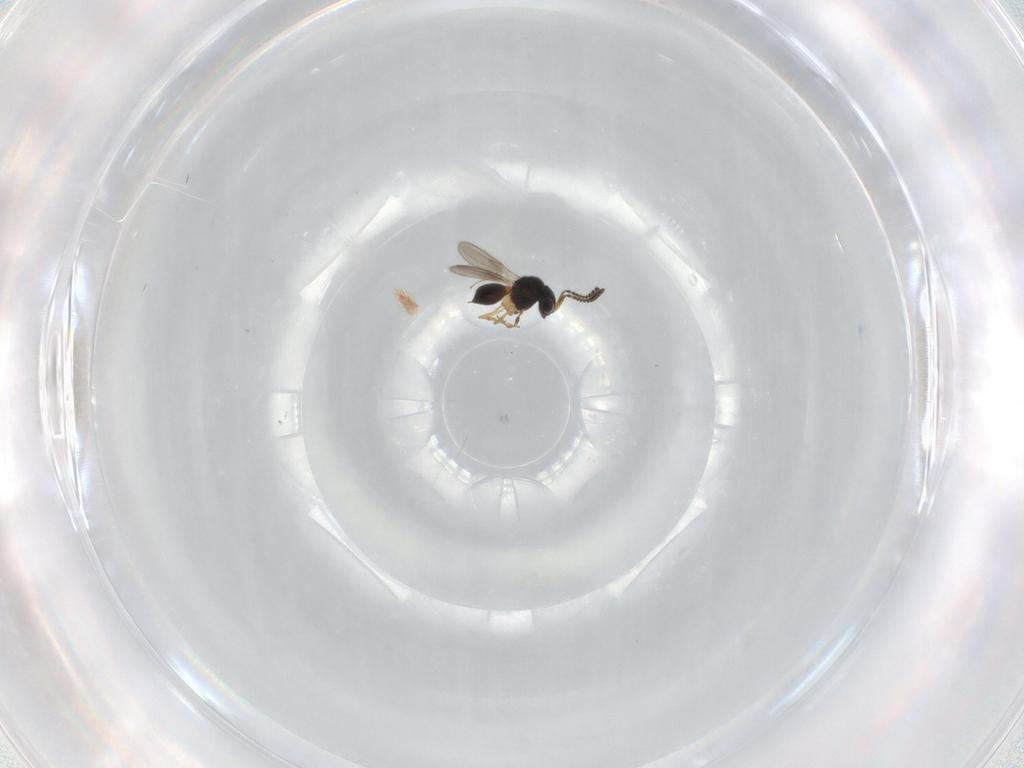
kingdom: Animalia
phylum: Arthropoda
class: Insecta
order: Hymenoptera
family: Scelionidae
